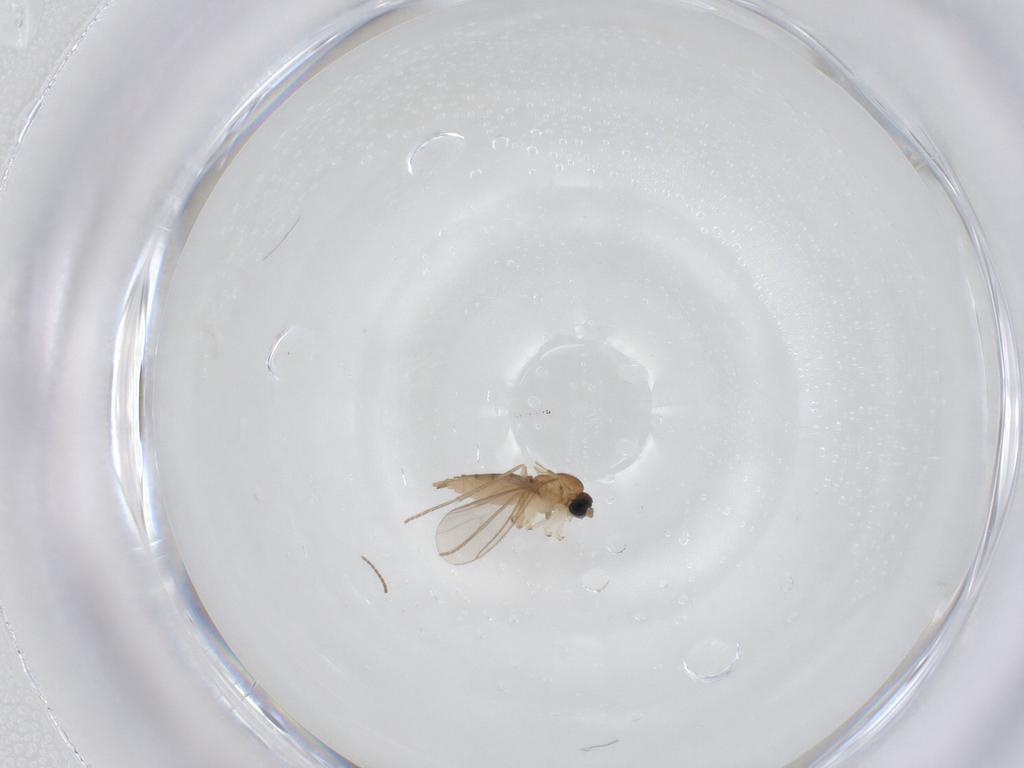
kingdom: Animalia
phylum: Arthropoda
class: Insecta
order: Diptera
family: Sciaridae
